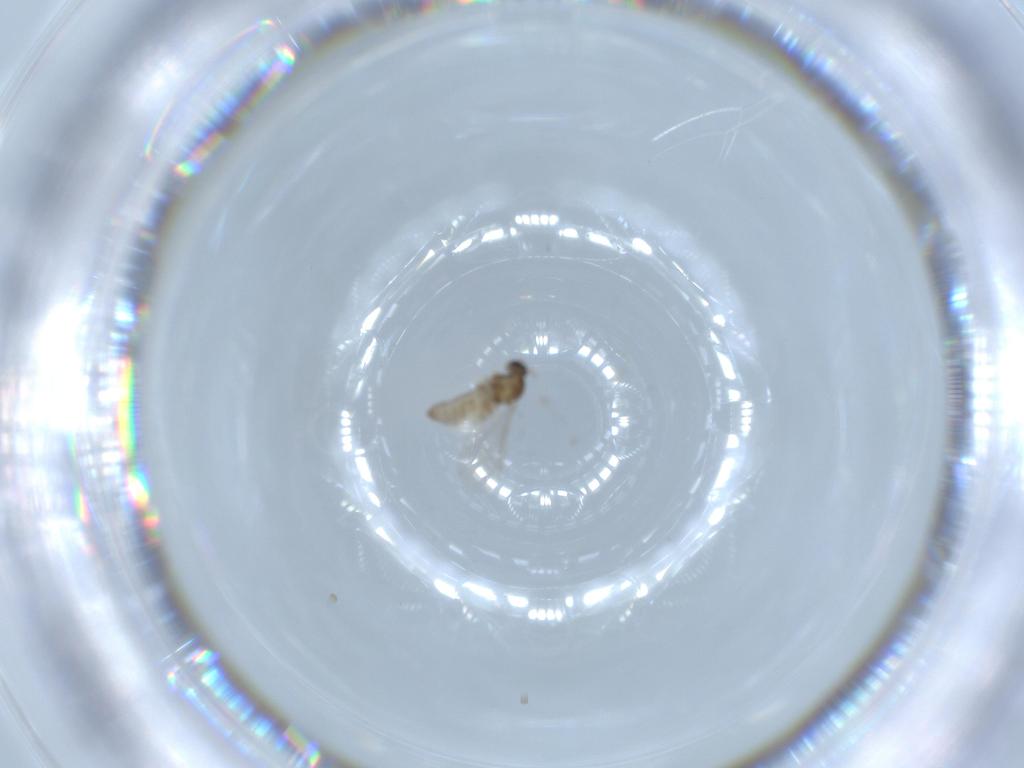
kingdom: Animalia
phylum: Arthropoda
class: Insecta
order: Diptera
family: Cecidomyiidae
